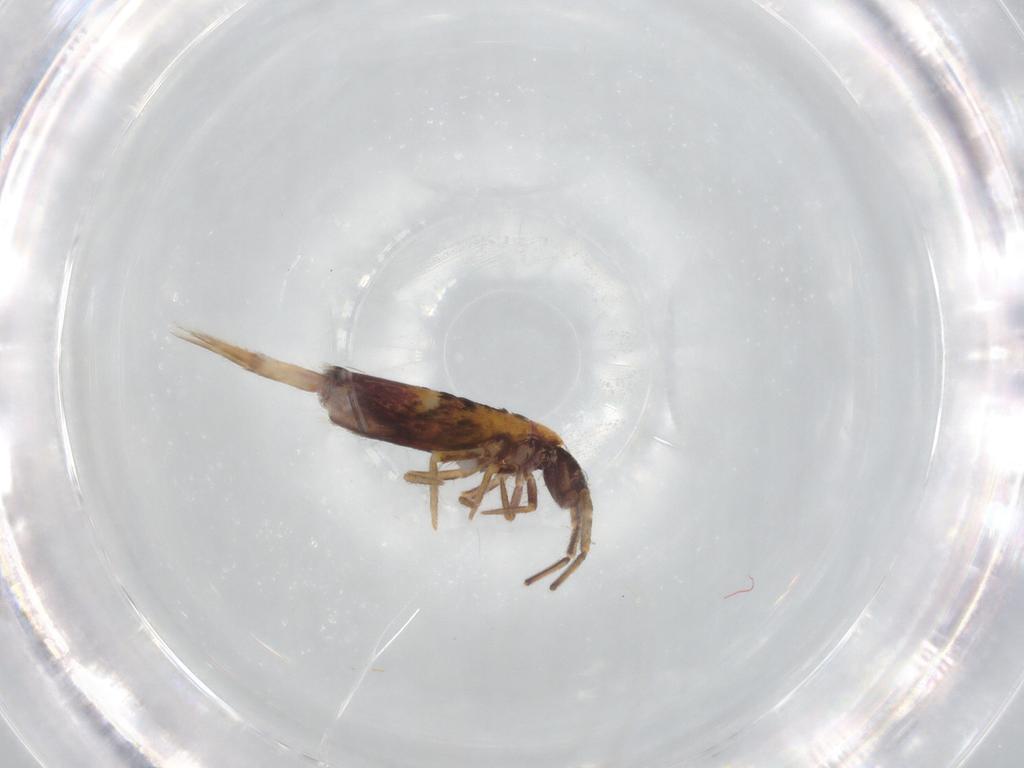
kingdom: Animalia
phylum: Arthropoda
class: Collembola
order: Entomobryomorpha
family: Entomobryidae
